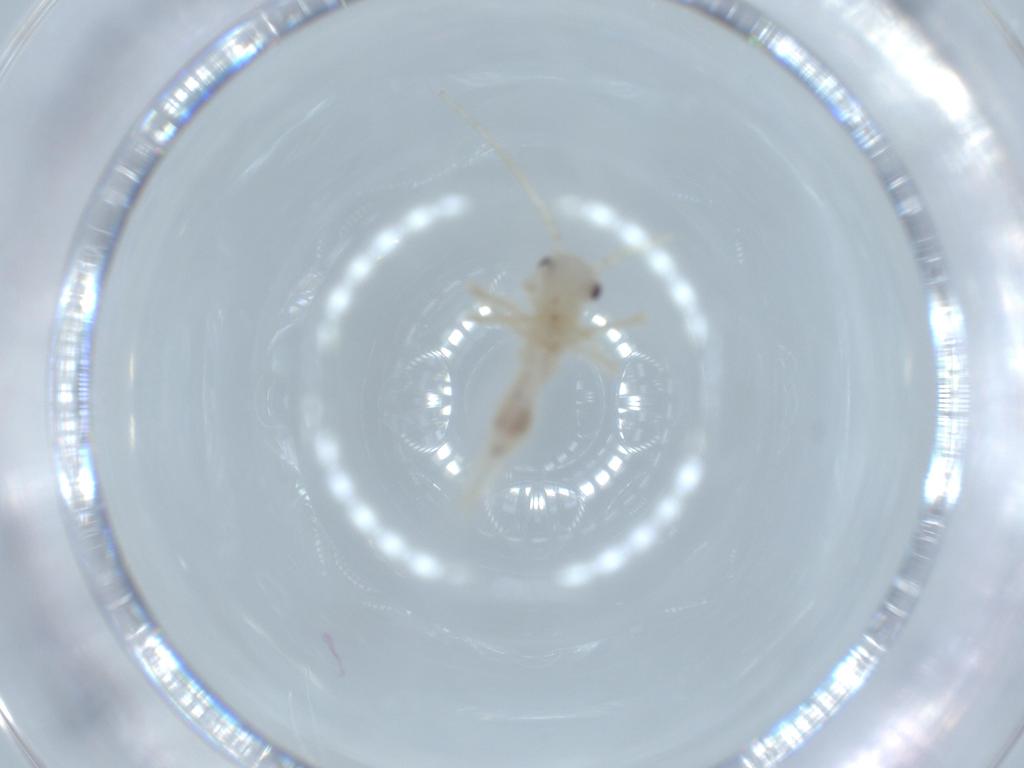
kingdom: Animalia
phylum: Arthropoda
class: Insecta
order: Orthoptera
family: Trigonidiidae
